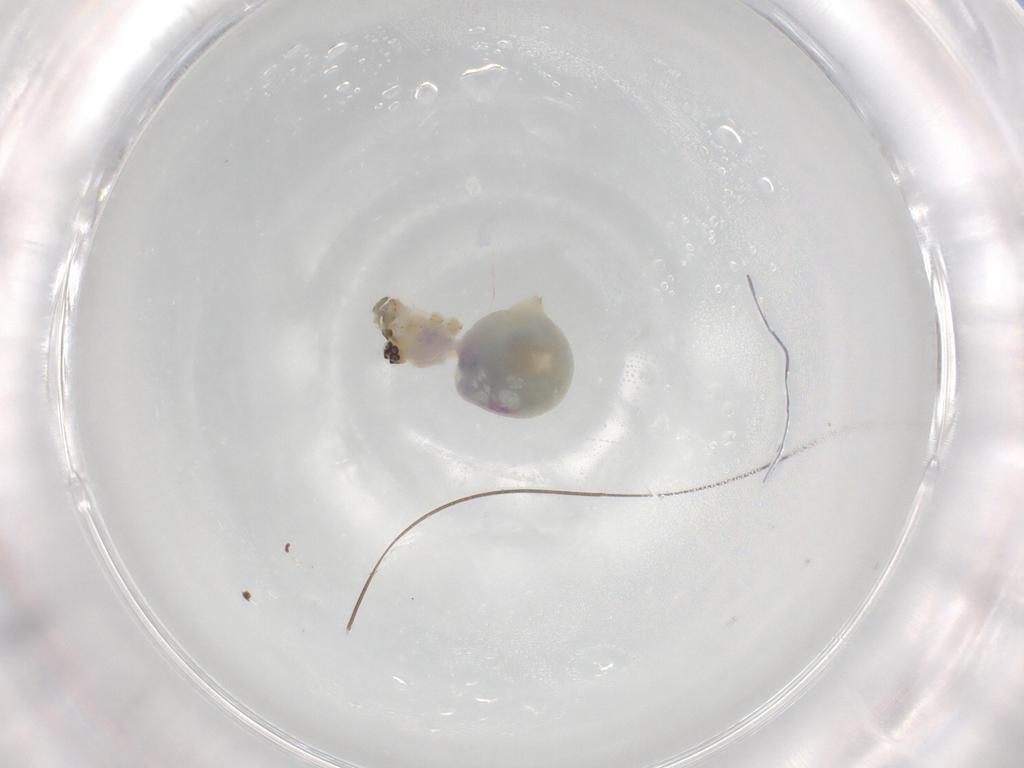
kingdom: Animalia
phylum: Arthropoda
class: Arachnida
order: Araneae
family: Pholcidae
